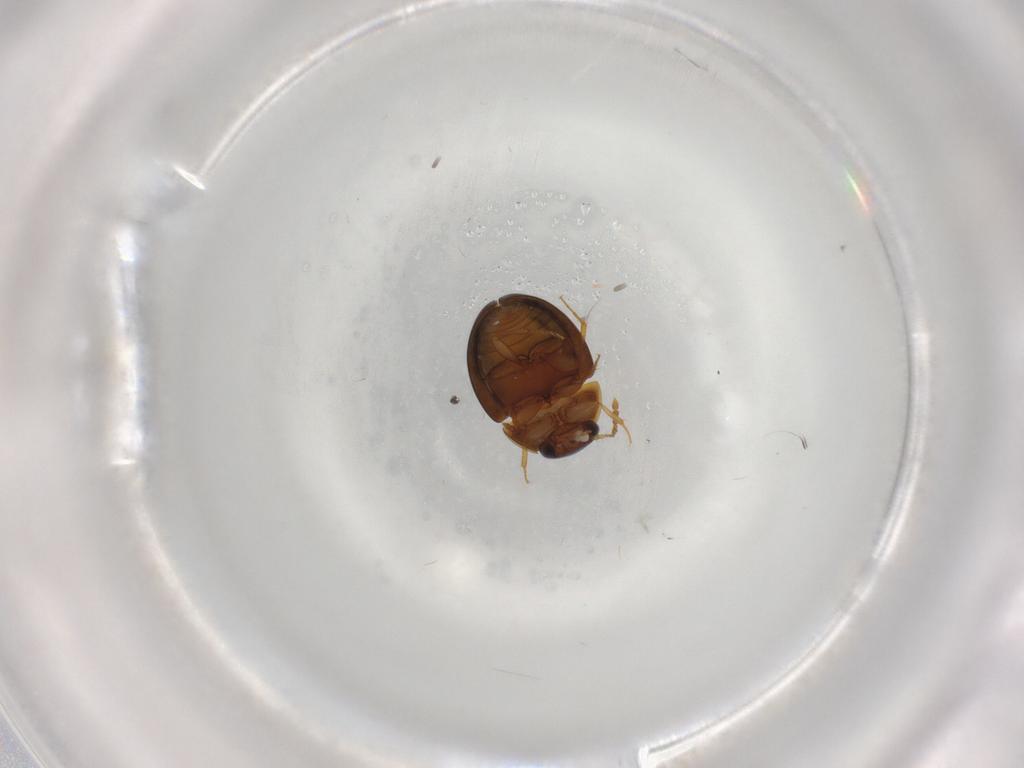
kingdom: Animalia
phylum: Arthropoda
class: Insecta
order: Coleoptera
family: Leiodidae
